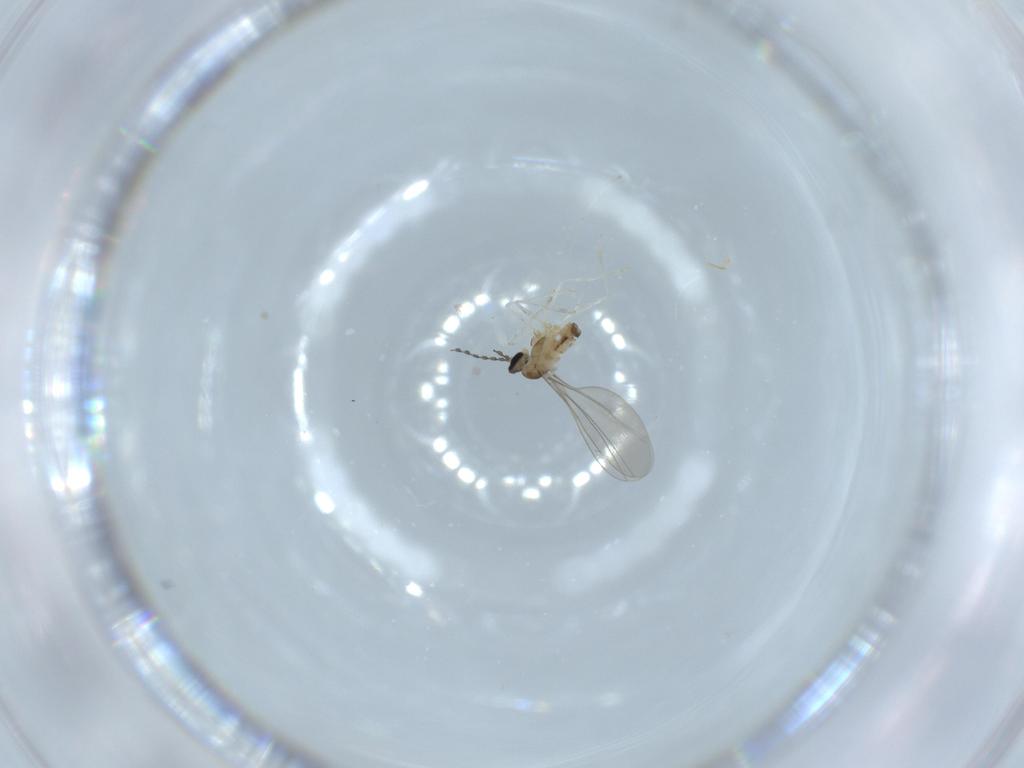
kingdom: Animalia
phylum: Arthropoda
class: Insecta
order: Diptera
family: Cecidomyiidae
